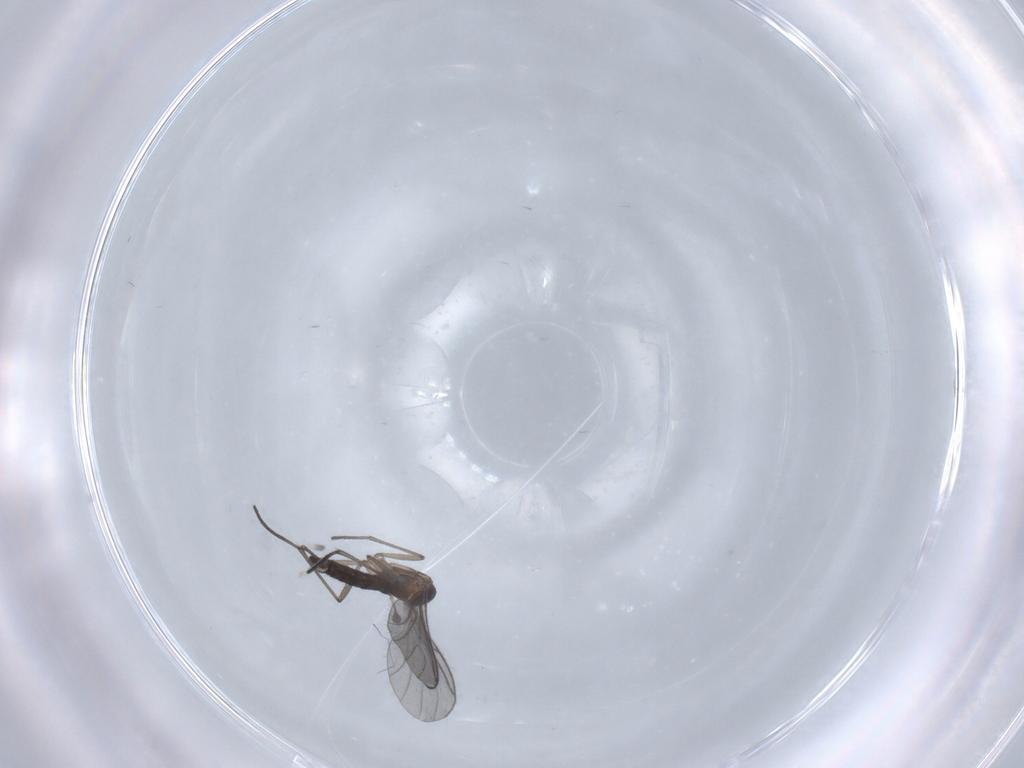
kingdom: Animalia
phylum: Arthropoda
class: Insecta
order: Diptera
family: Sciaridae
